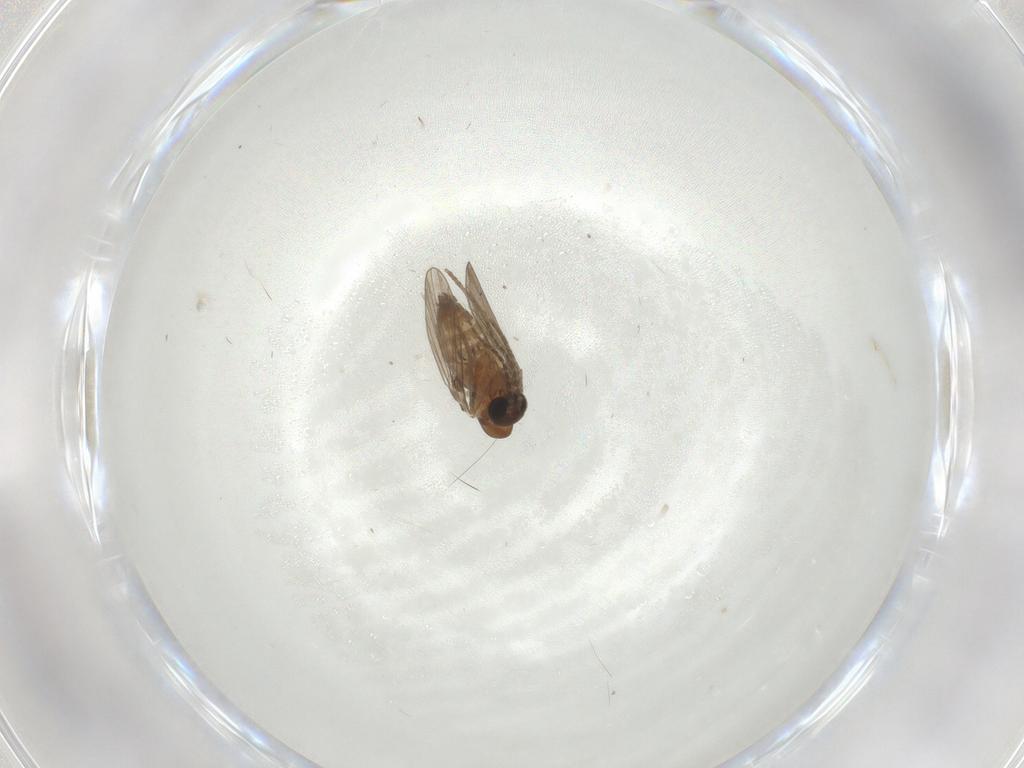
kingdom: Animalia
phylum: Arthropoda
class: Insecta
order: Diptera
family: Psychodidae
